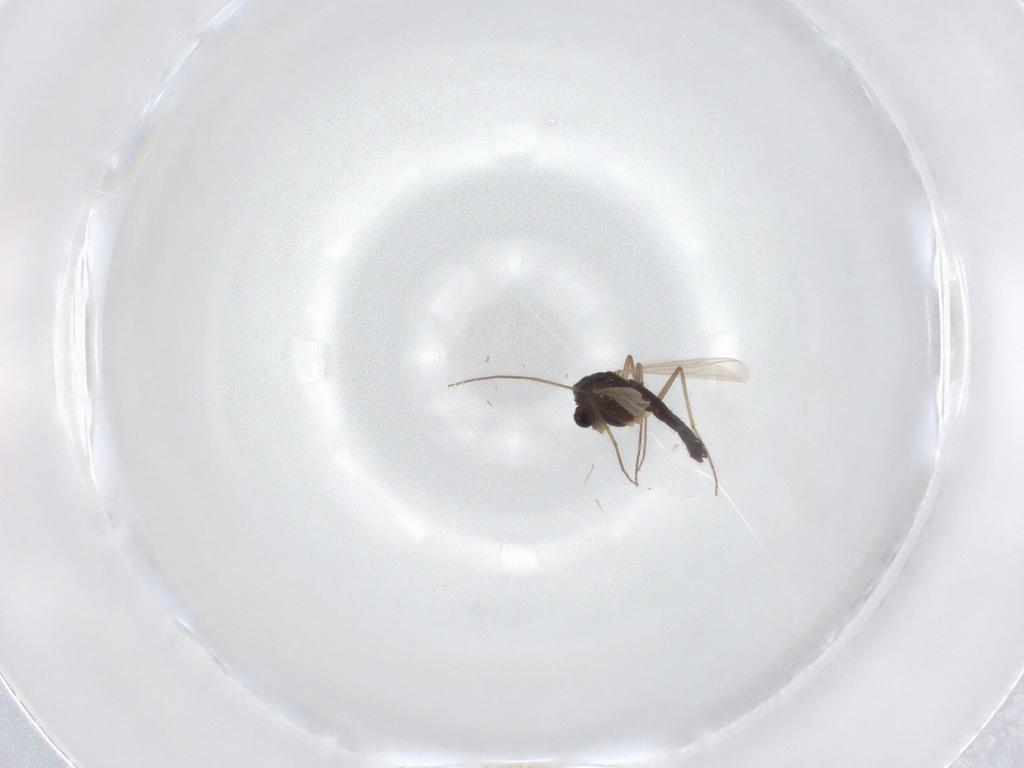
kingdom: Animalia
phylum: Arthropoda
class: Insecta
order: Diptera
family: Chironomidae
